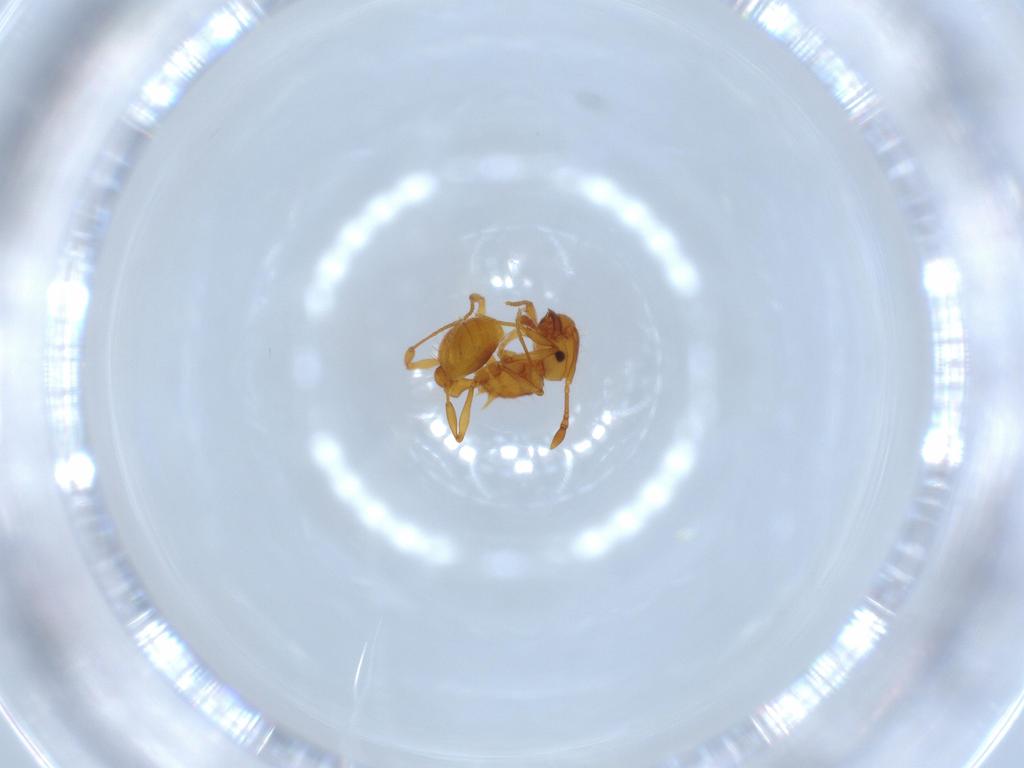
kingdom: Animalia
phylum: Arthropoda
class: Insecta
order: Hymenoptera
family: Formicidae
